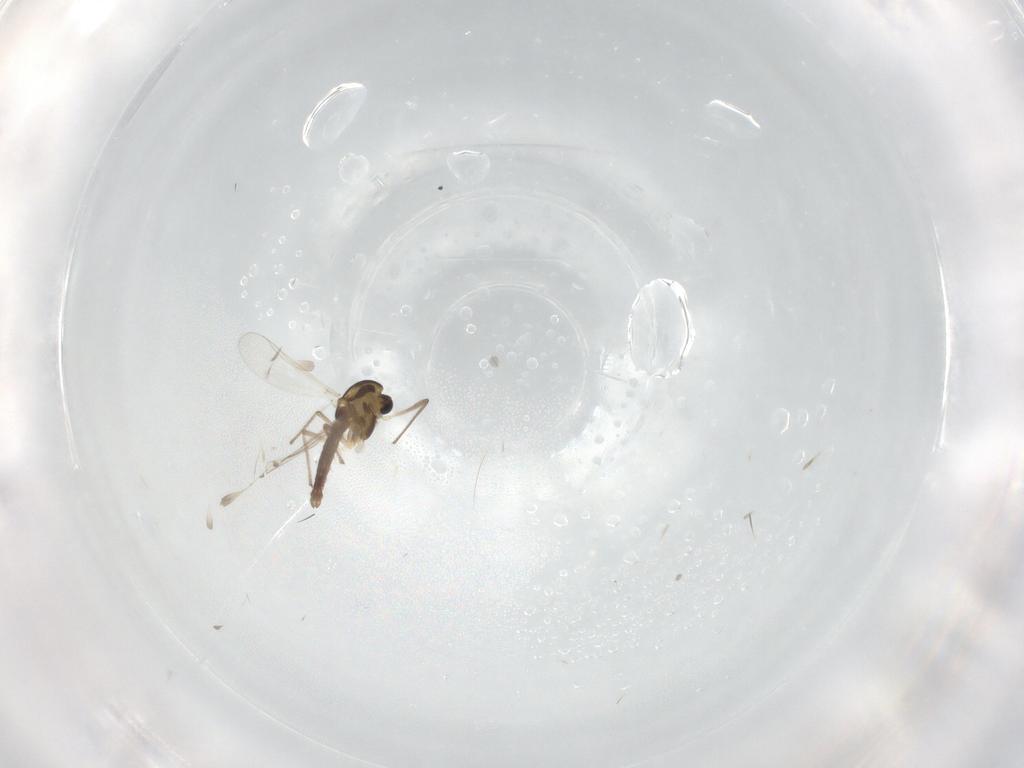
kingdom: Animalia
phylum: Arthropoda
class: Insecta
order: Diptera
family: Chironomidae
